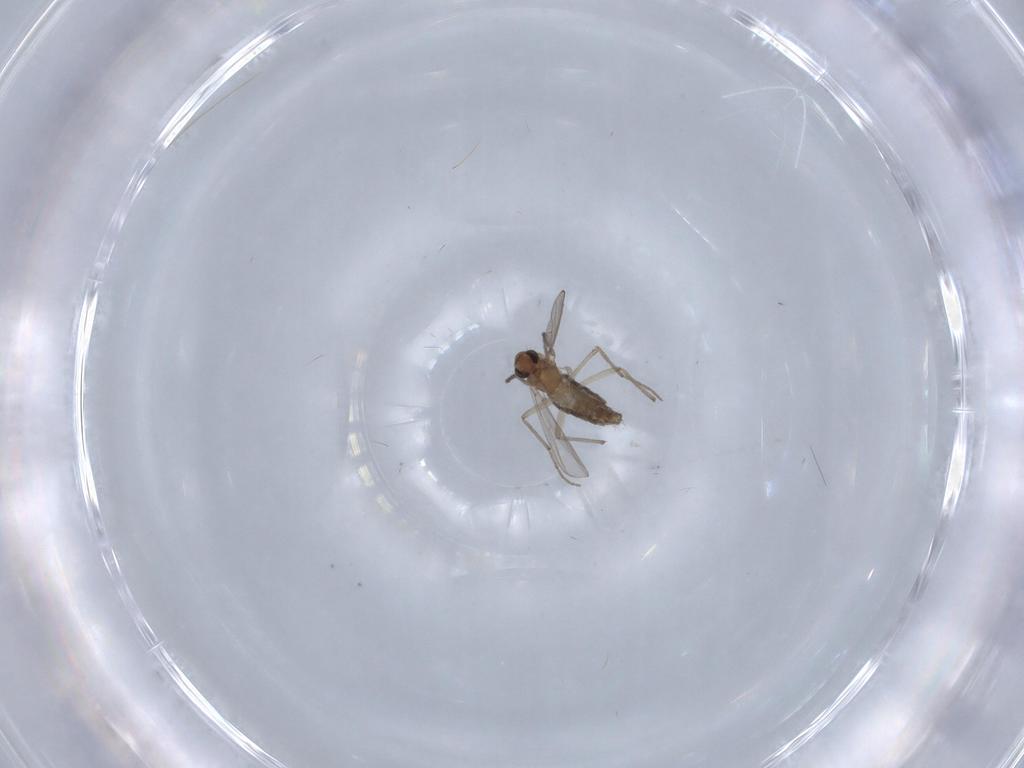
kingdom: Animalia
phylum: Arthropoda
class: Insecta
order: Diptera
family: Chironomidae
